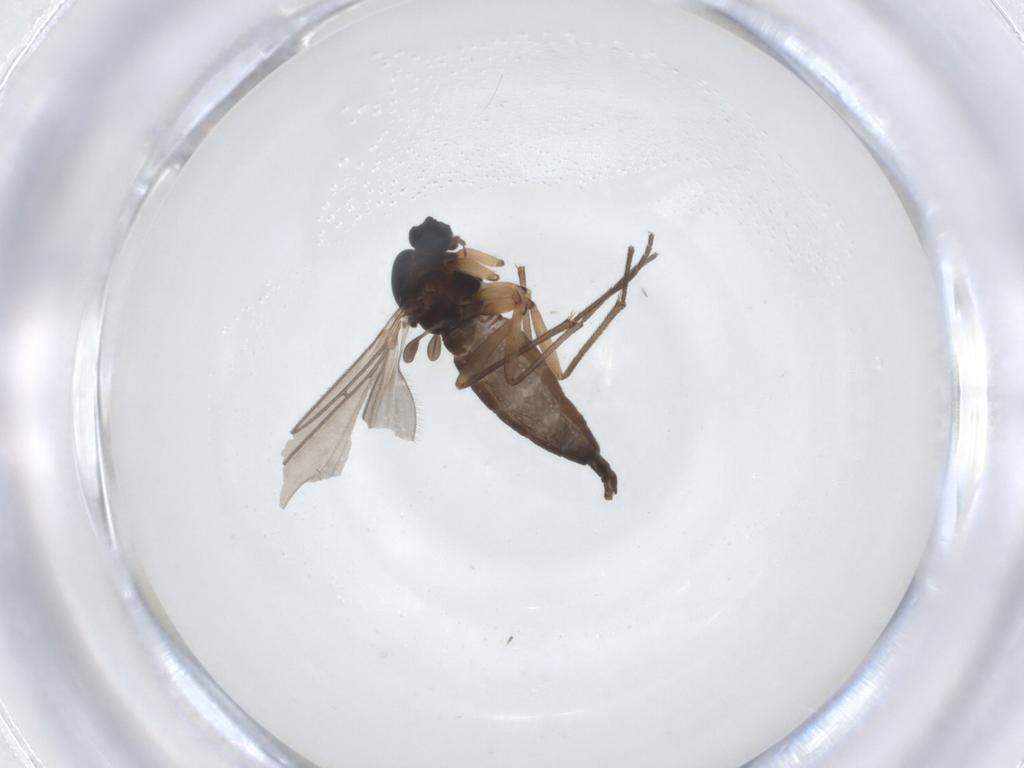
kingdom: Animalia
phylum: Arthropoda
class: Insecta
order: Diptera
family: Sciaridae
